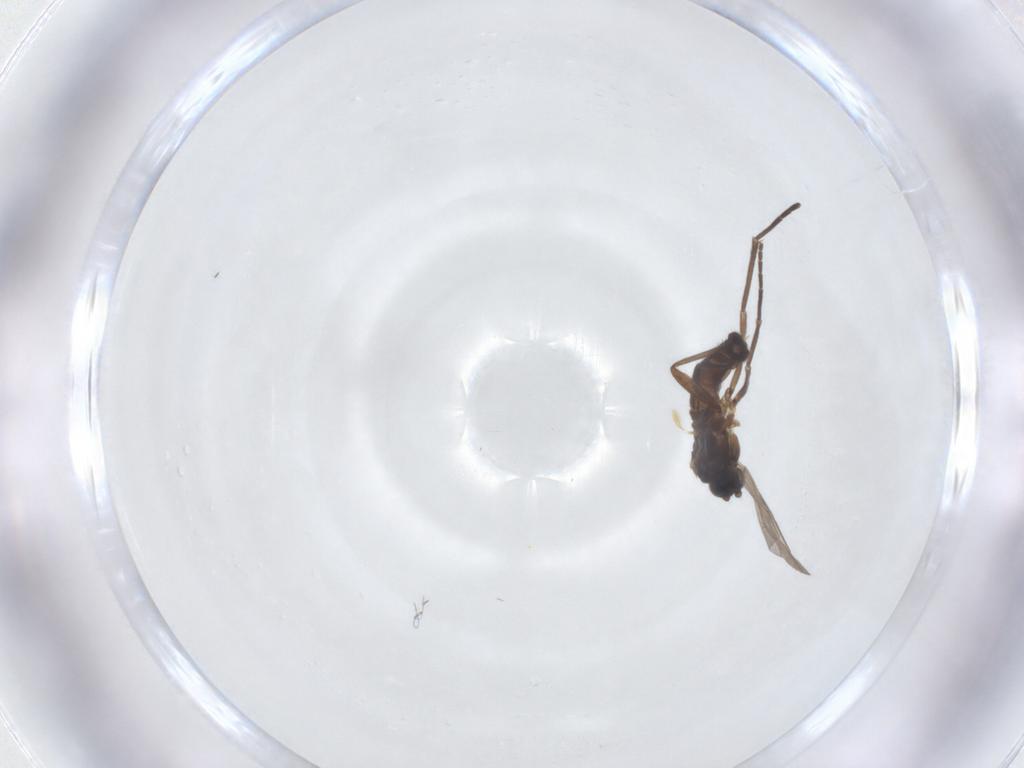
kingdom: Animalia
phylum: Arthropoda
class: Insecta
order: Diptera
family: Sciaridae
